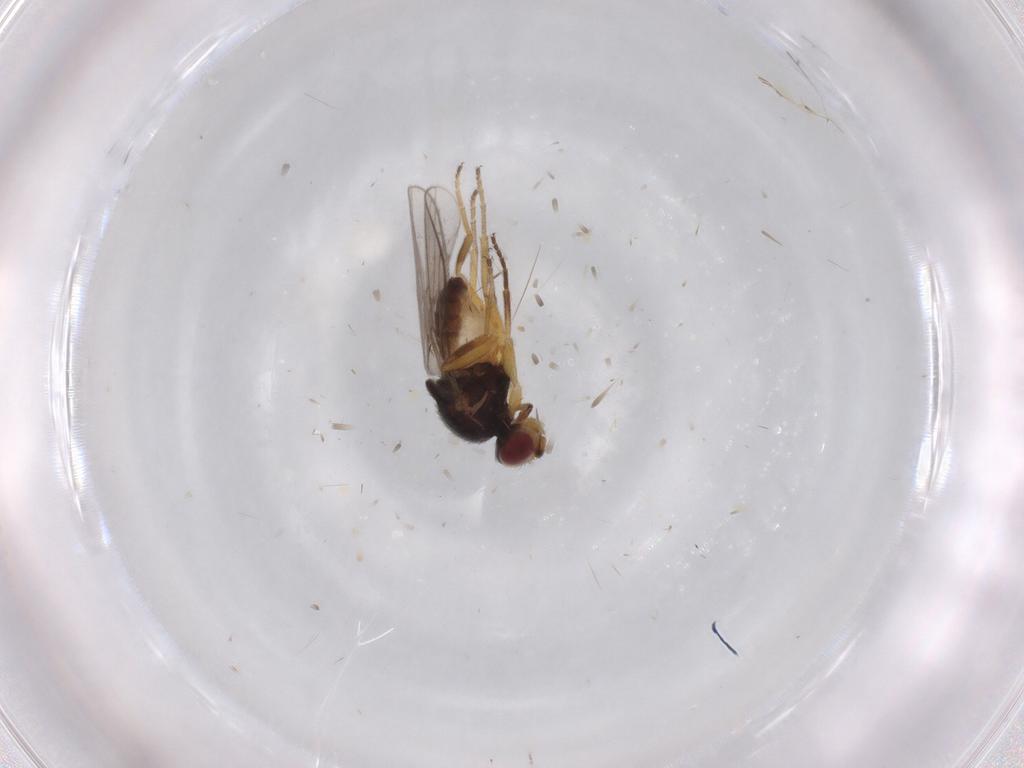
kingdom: Animalia
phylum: Arthropoda
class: Insecta
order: Diptera
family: Chloropidae
